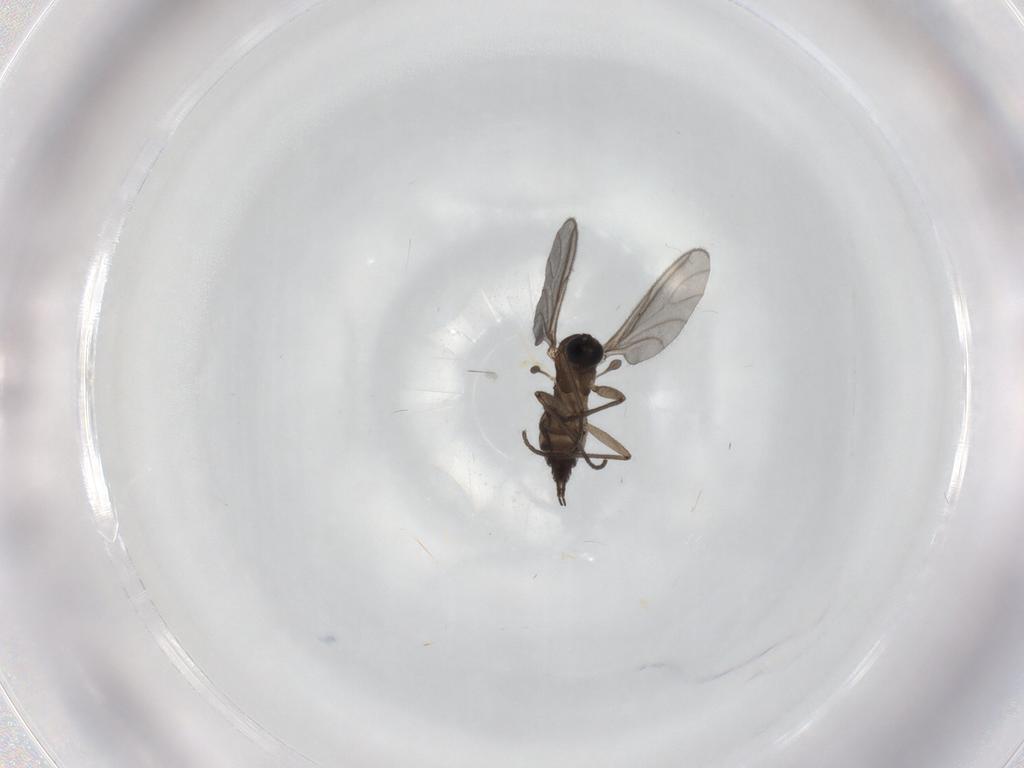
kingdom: Animalia
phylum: Arthropoda
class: Insecta
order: Diptera
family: Sciaridae
